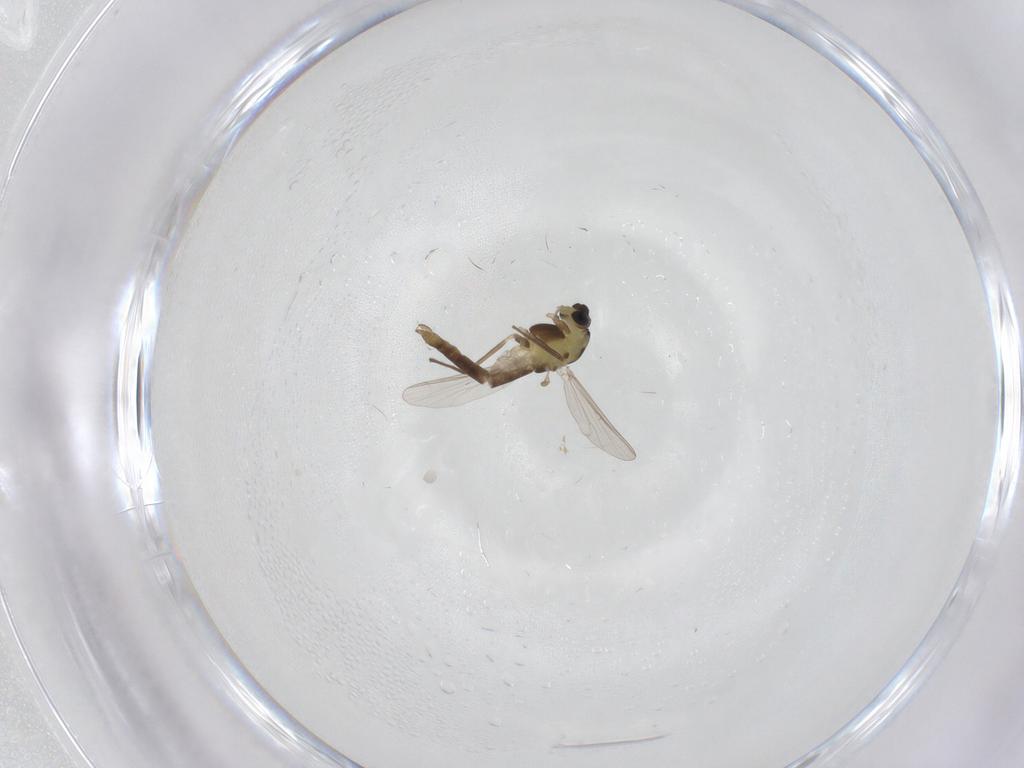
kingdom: Animalia
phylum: Arthropoda
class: Insecta
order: Diptera
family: Chironomidae
